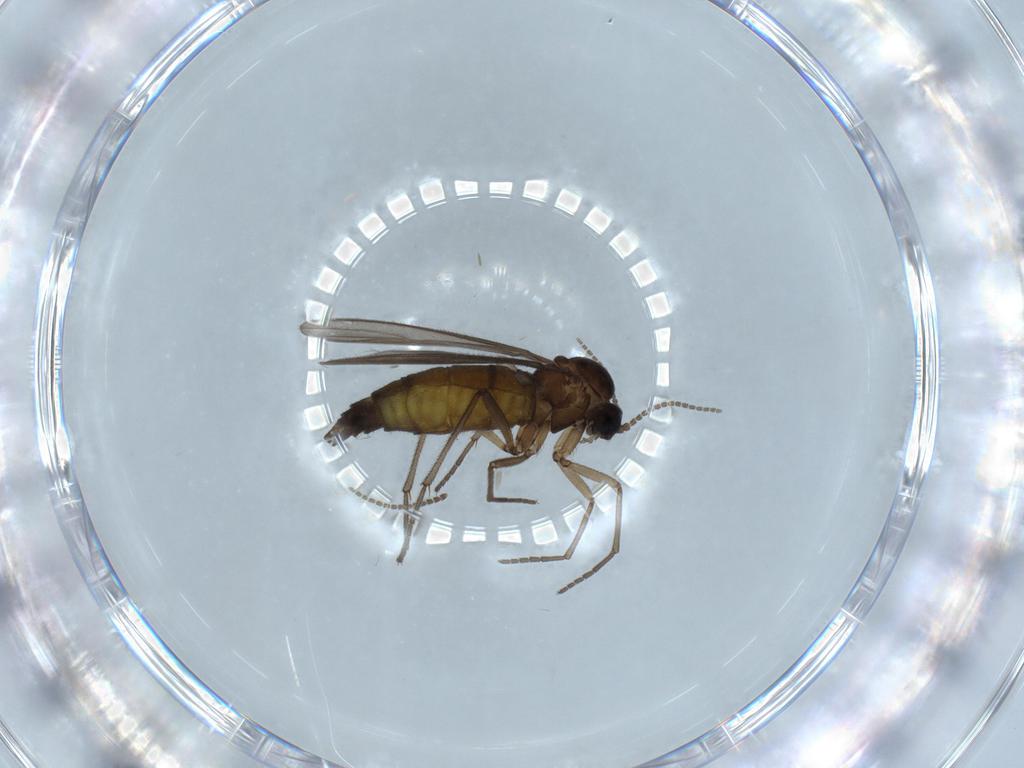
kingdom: Animalia
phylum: Arthropoda
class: Insecta
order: Diptera
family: Sciaridae
